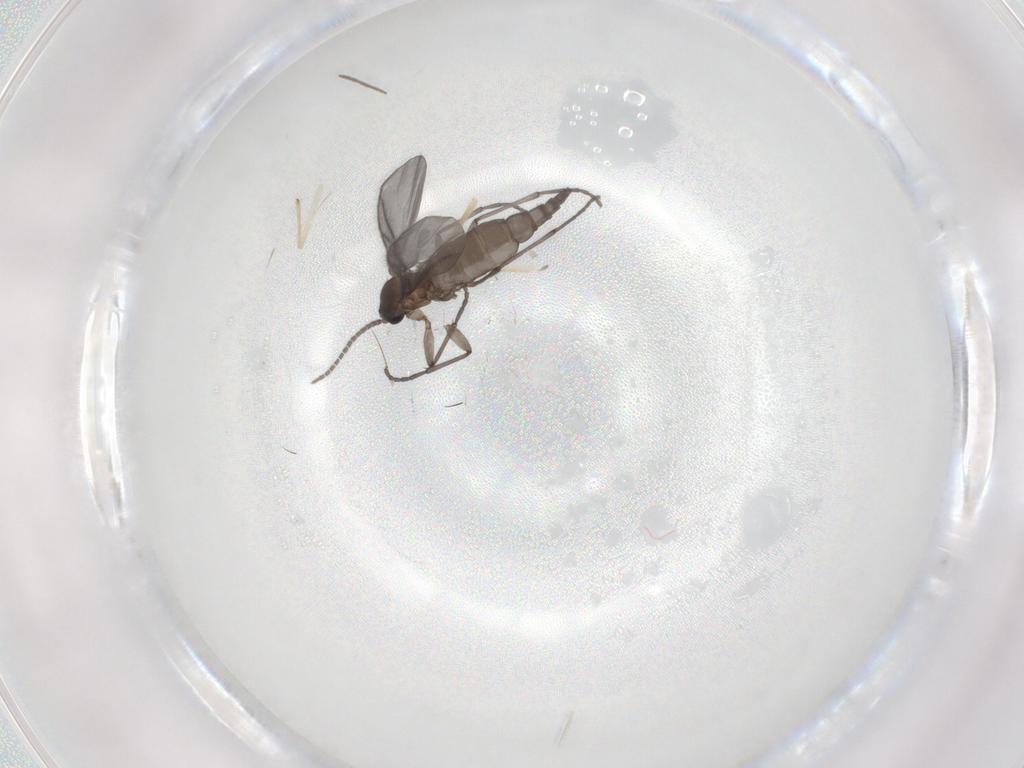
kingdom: Animalia
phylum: Arthropoda
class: Insecta
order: Diptera
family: Sciaridae
